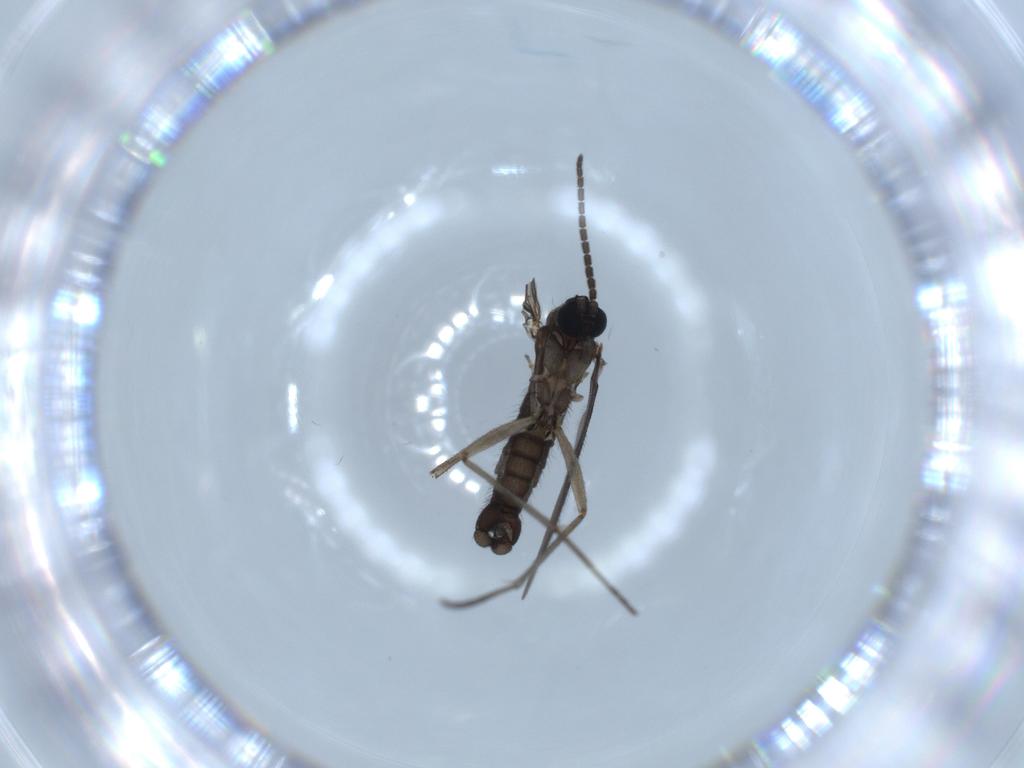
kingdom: Animalia
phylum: Arthropoda
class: Insecta
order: Diptera
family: Sciaridae
